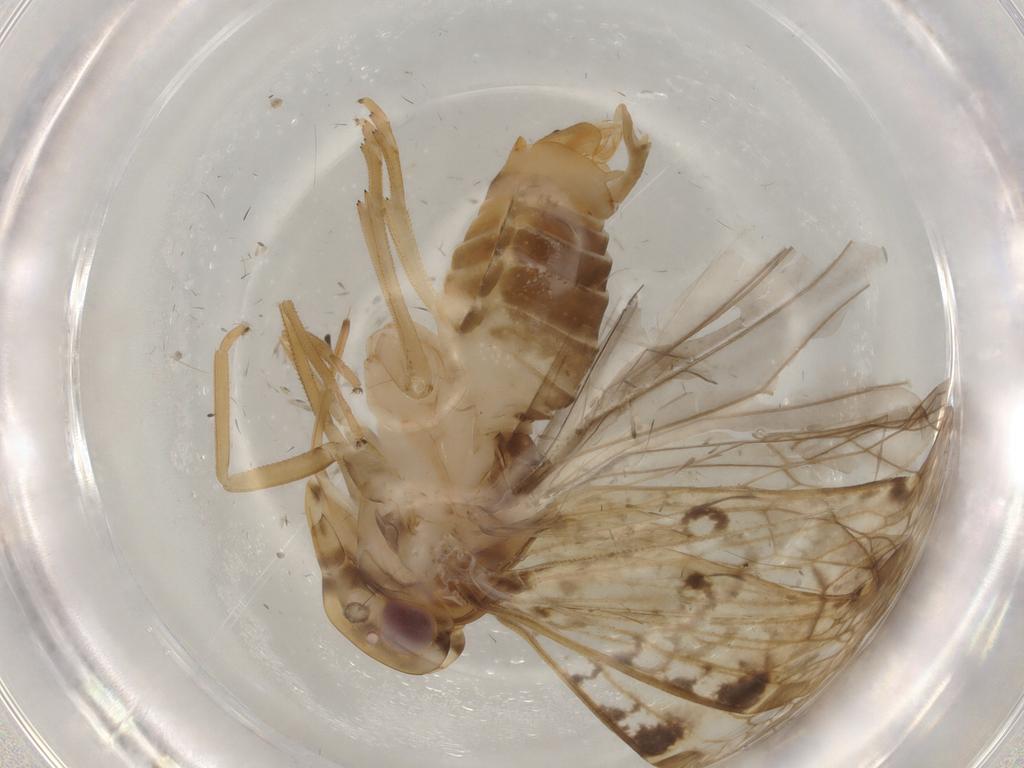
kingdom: Animalia
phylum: Arthropoda
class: Insecta
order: Hemiptera
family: Cixiidae
